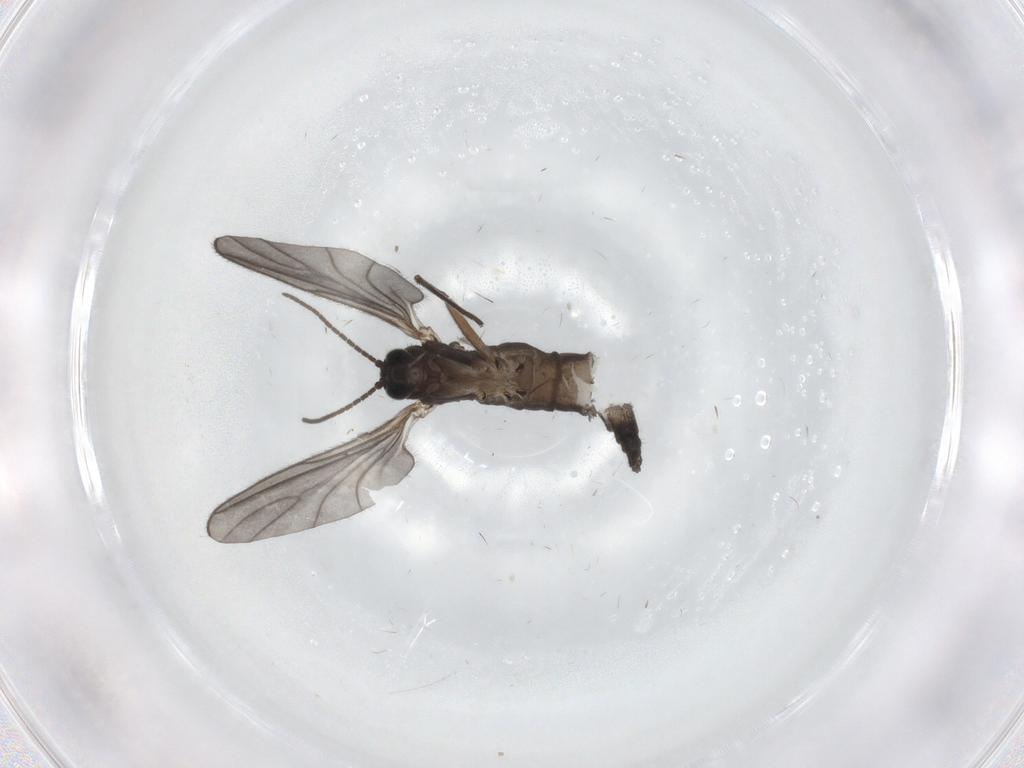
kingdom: Animalia
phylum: Arthropoda
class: Insecta
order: Diptera
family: Sciaridae
